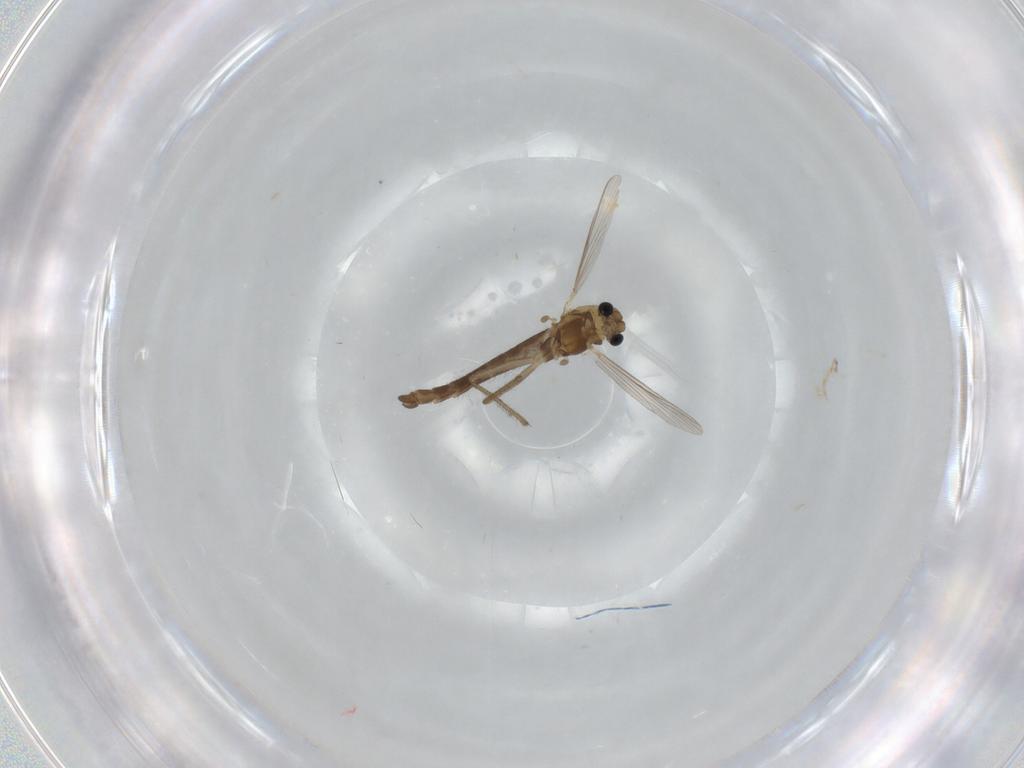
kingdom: Animalia
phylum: Arthropoda
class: Insecta
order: Diptera
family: Chironomidae
